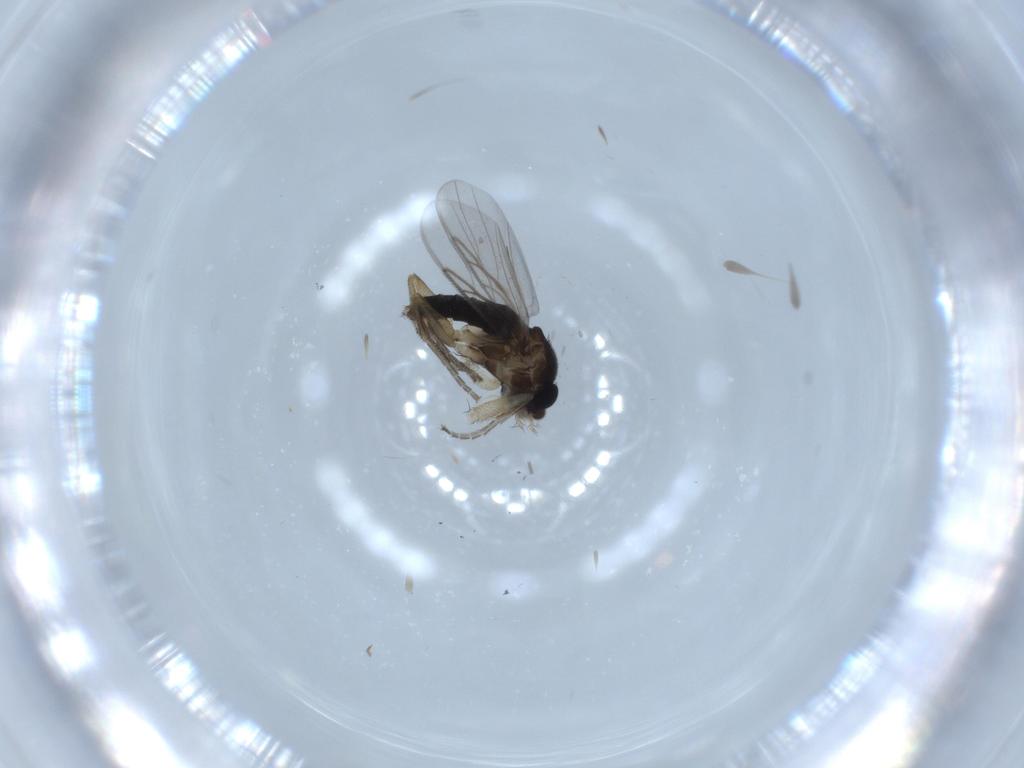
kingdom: Animalia
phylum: Arthropoda
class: Insecta
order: Diptera
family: Phoridae
